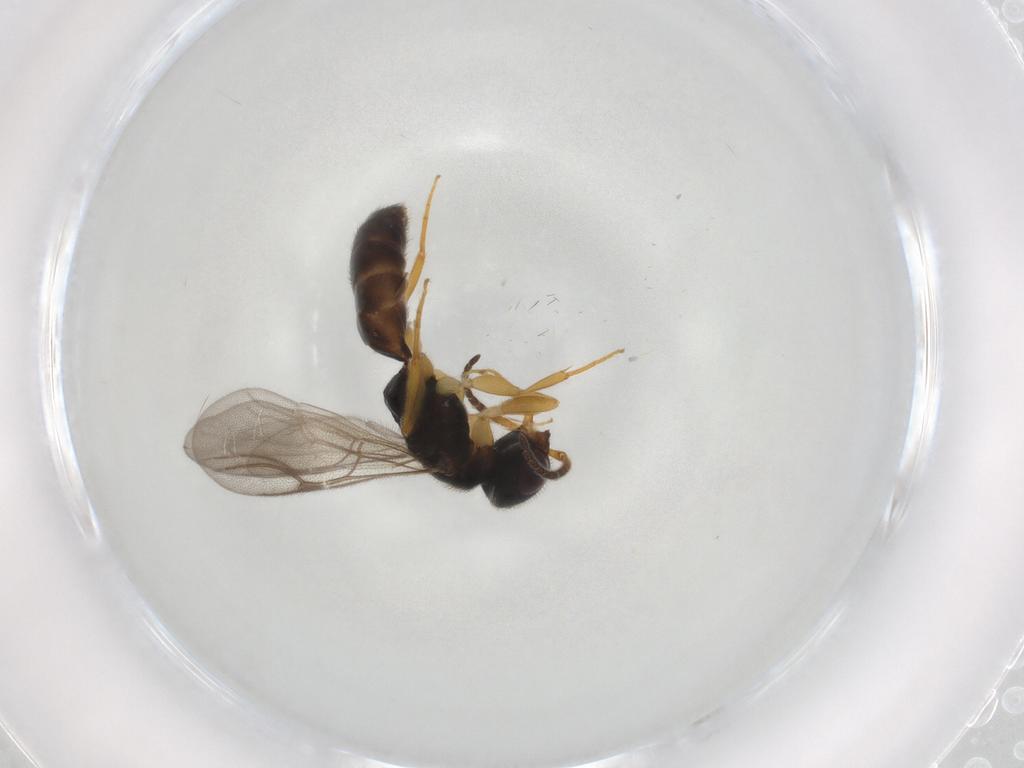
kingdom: Animalia
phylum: Arthropoda
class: Insecta
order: Hymenoptera
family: Bethylidae
